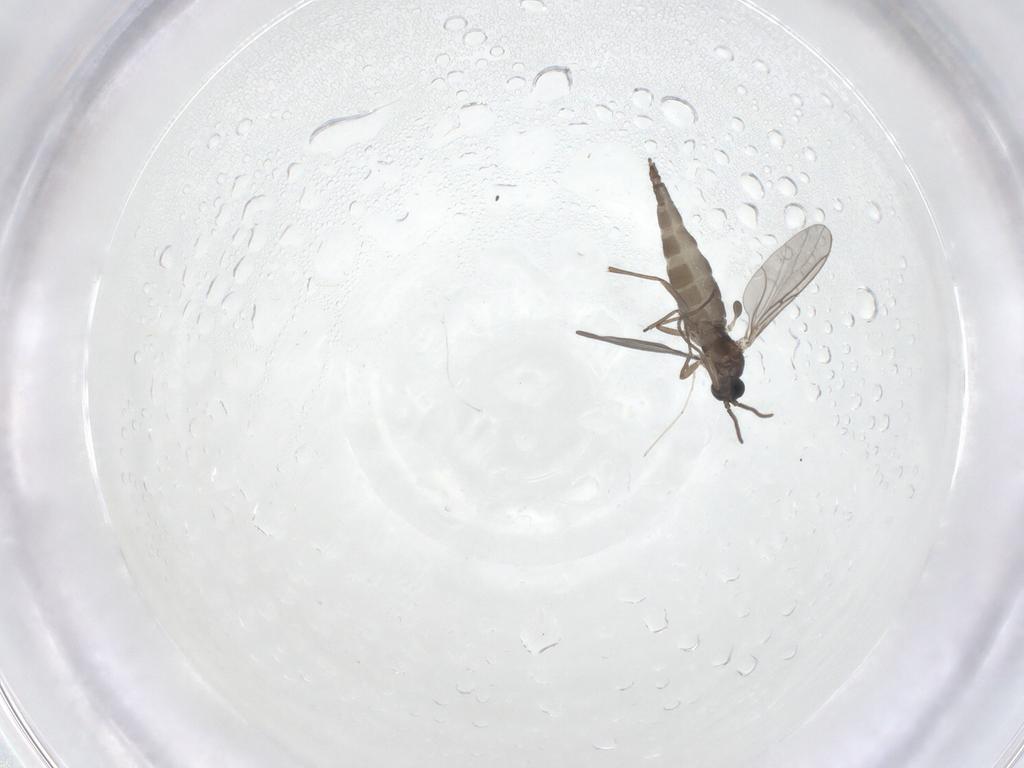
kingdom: Animalia
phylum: Arthropoda
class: Insecta
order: Diptera
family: Sciaridae
